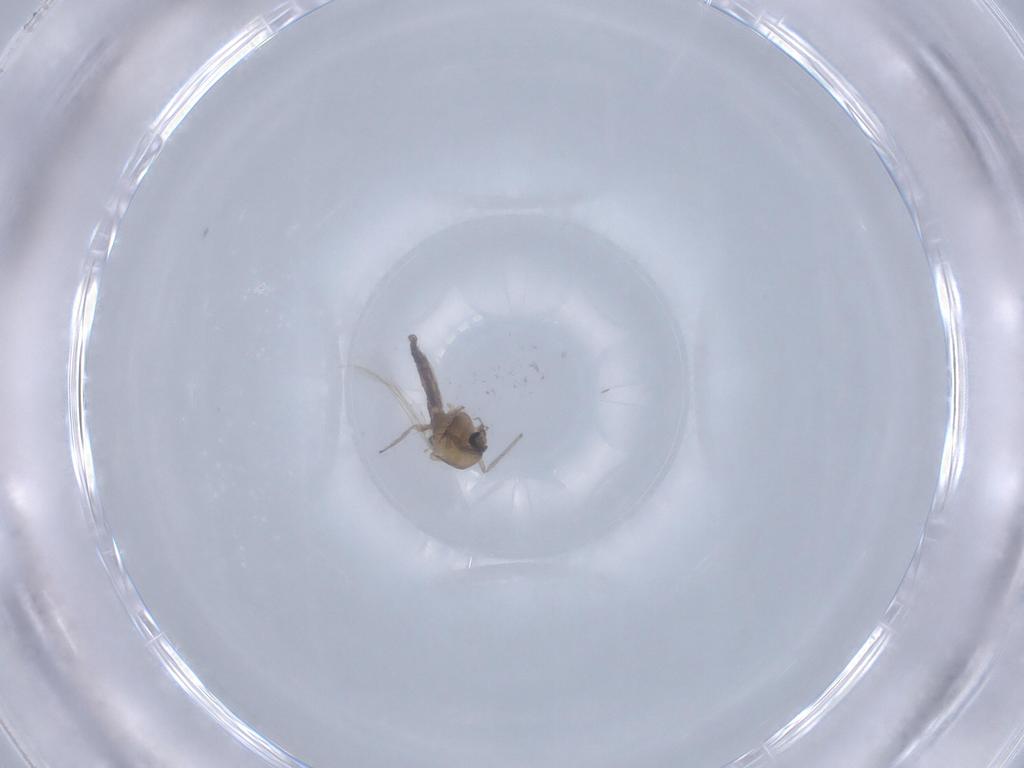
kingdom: Animalia
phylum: Arthropoda
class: Insecta
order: Diptera
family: Chironomidae
